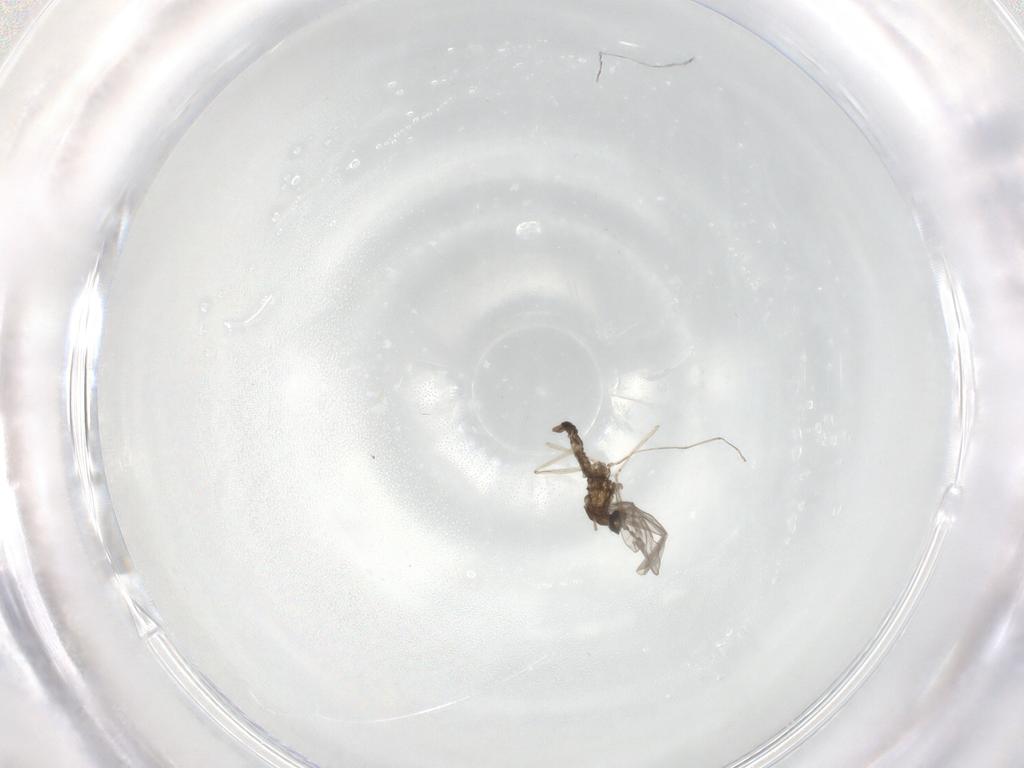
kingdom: Animalia
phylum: Arthropoda
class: Insecta
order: Diptera
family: Cecidomyiidae
